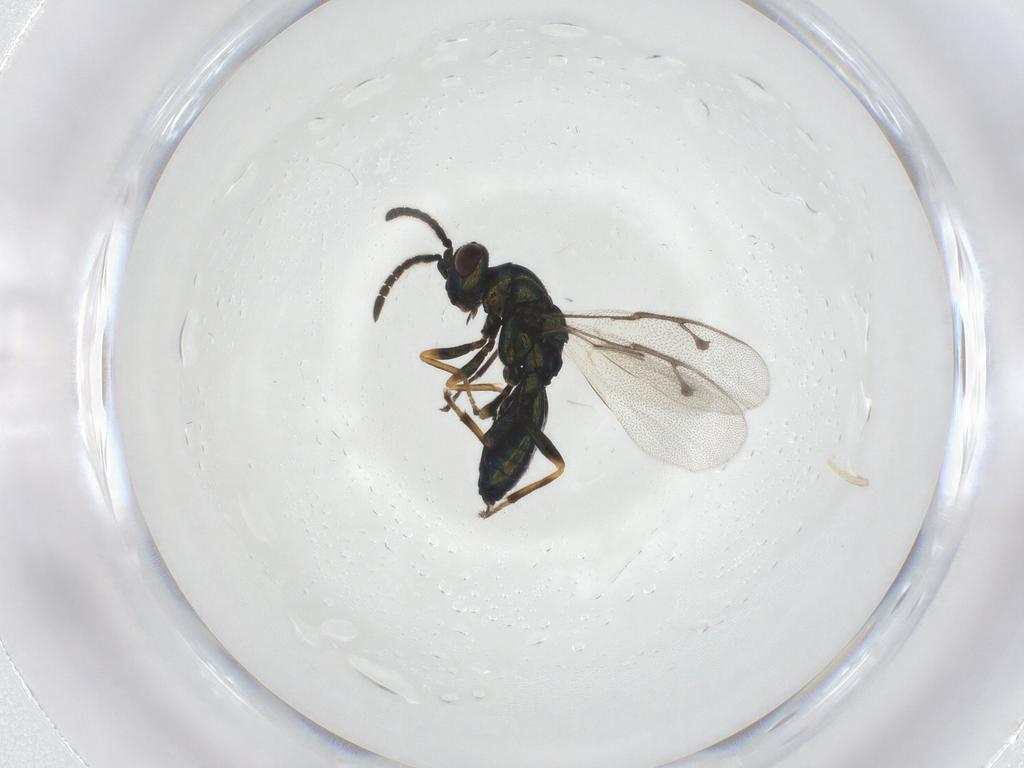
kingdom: Animalia
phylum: Arthropoda
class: Insecta
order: Hymenoptera
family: Pteromalidae
